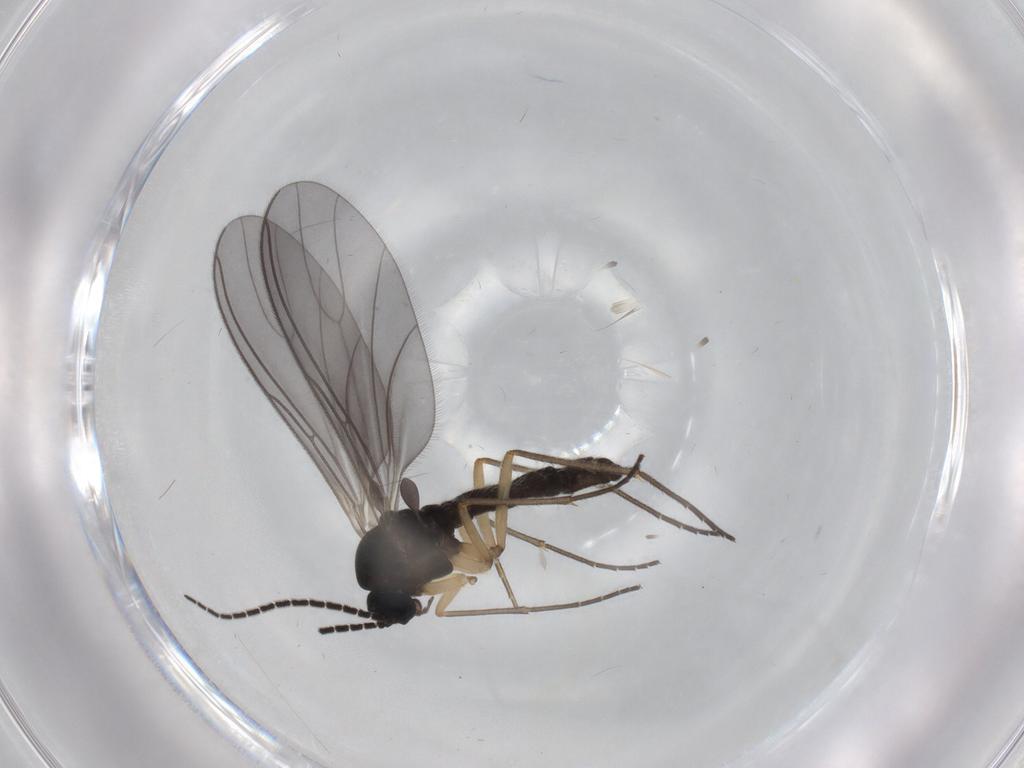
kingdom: Animalia
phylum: Arthropoda
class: Insecta
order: Diptera
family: Sciaridae
